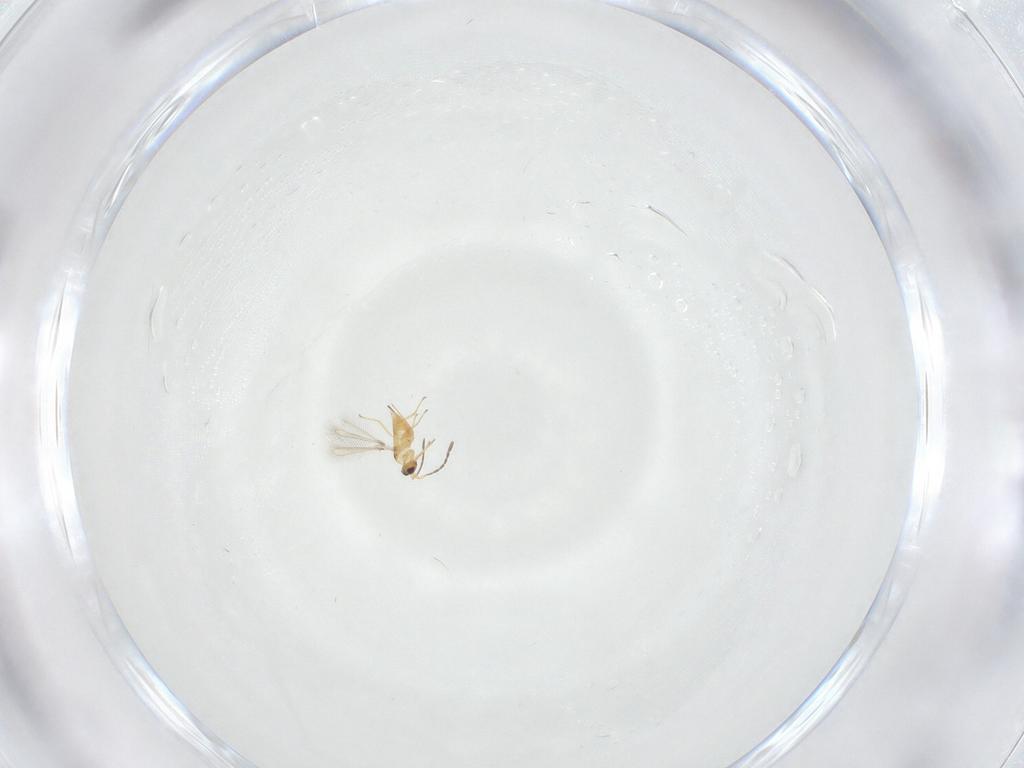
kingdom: Animalia
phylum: Arthropoda
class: Insecta
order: Hymenoptera
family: Mymaridae
